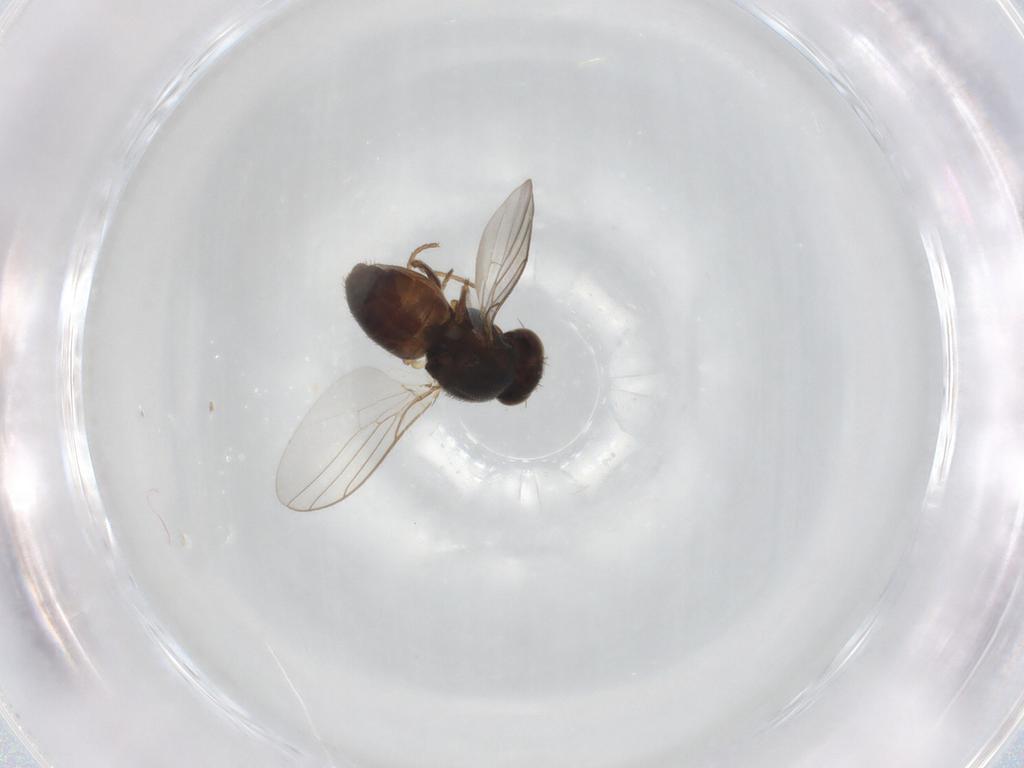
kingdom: Animalia
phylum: Arthropoda
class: Insecta
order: Diptera
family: Chloropidae
